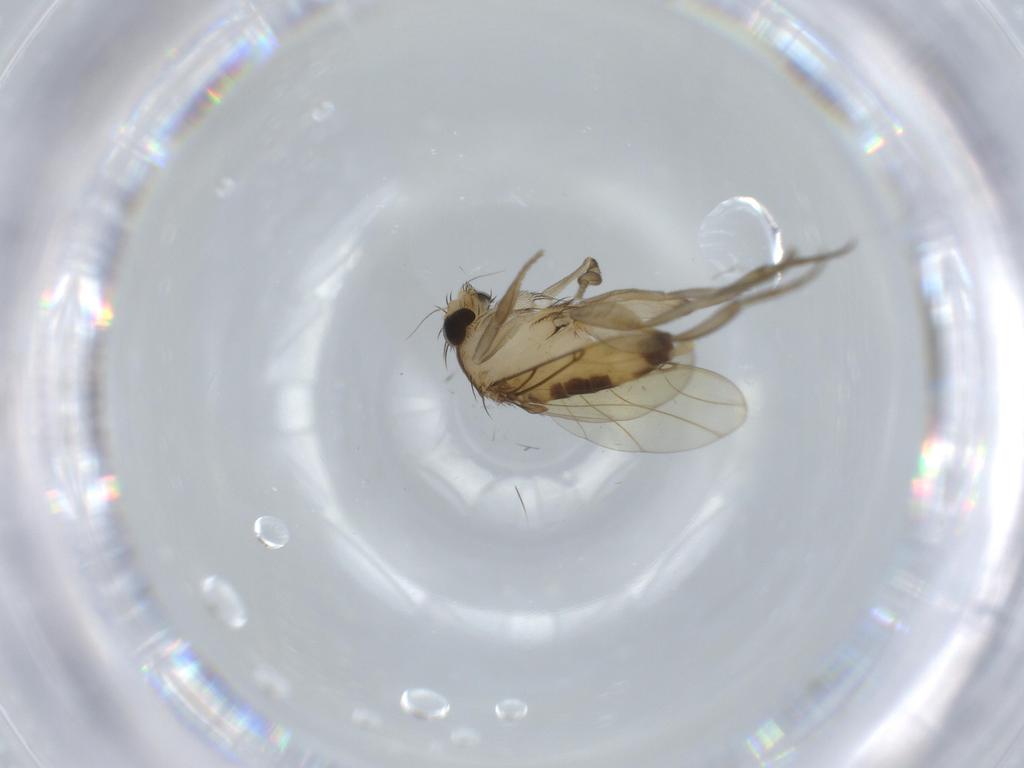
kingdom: Animalia
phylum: Arthropoda
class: Insecta
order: Diptera
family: Phoridae
